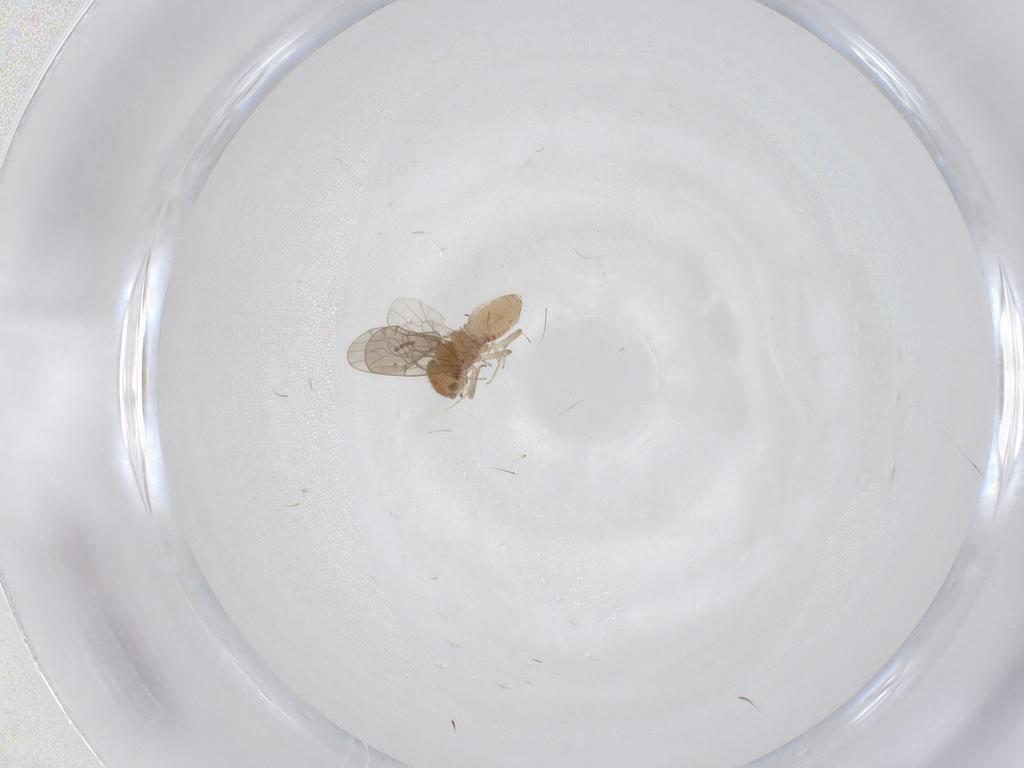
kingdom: Animalia
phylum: Arthropoda
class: Insecta
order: Psocodea
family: Ectopsocidae
